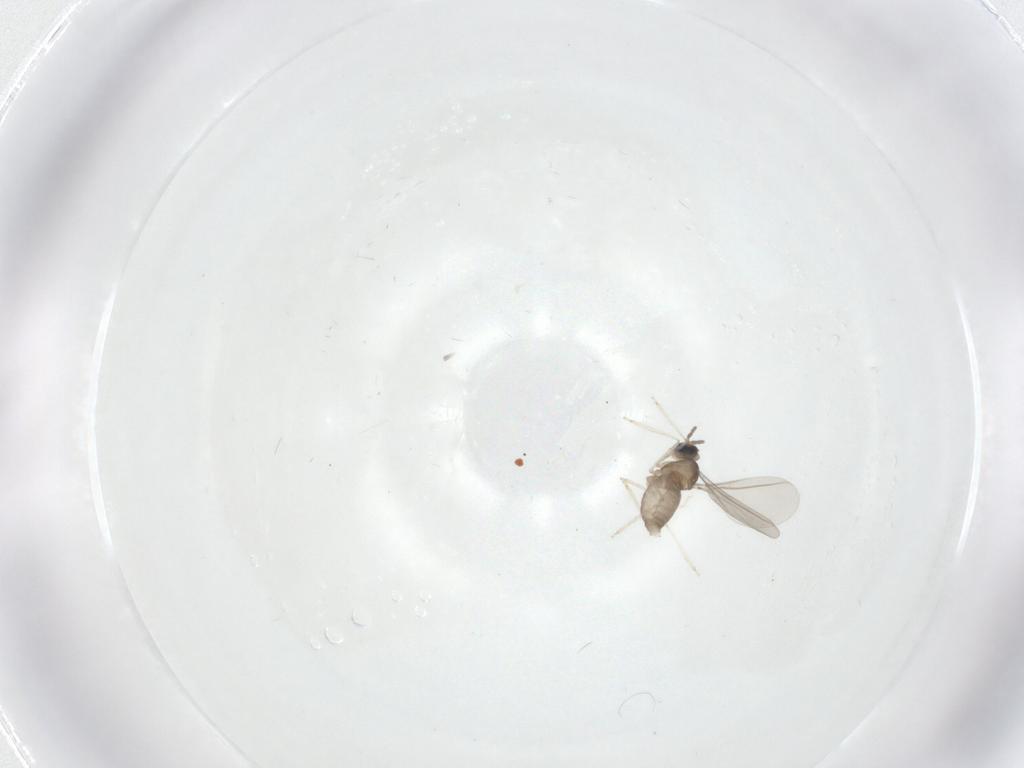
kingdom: Animalia
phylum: Arthropoda
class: Insecta
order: Diptera
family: Cecidomyiidae
